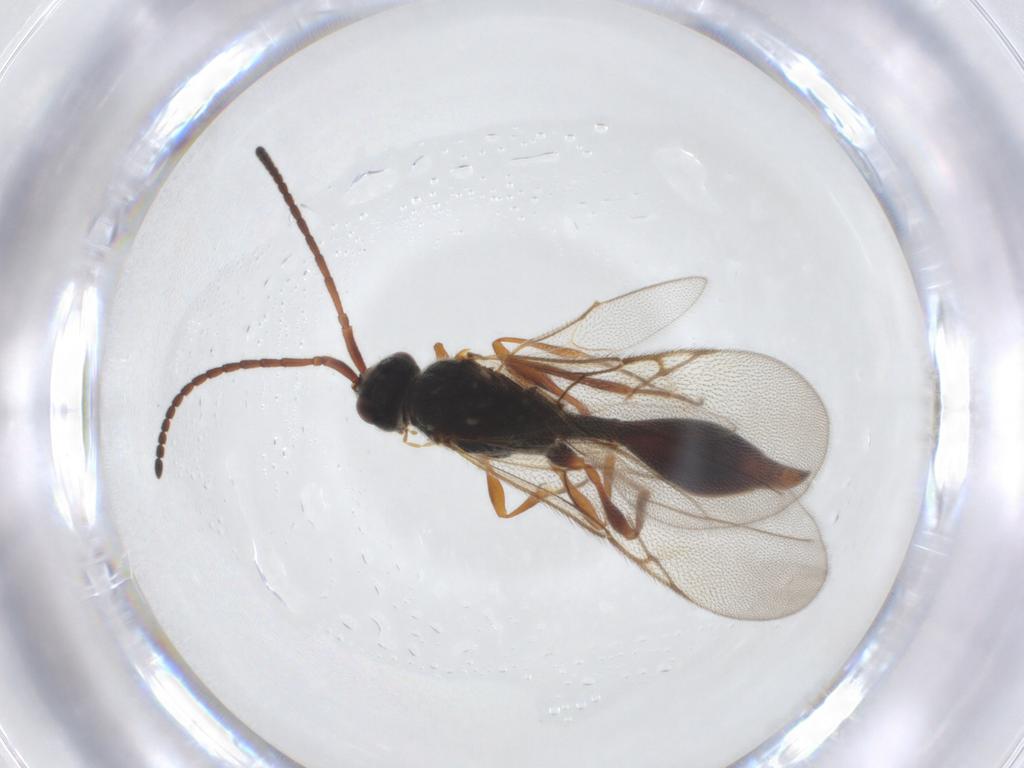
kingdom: Animalia
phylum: Arthropoda
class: Insecta
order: Hymenoptera
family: Diapriidae
